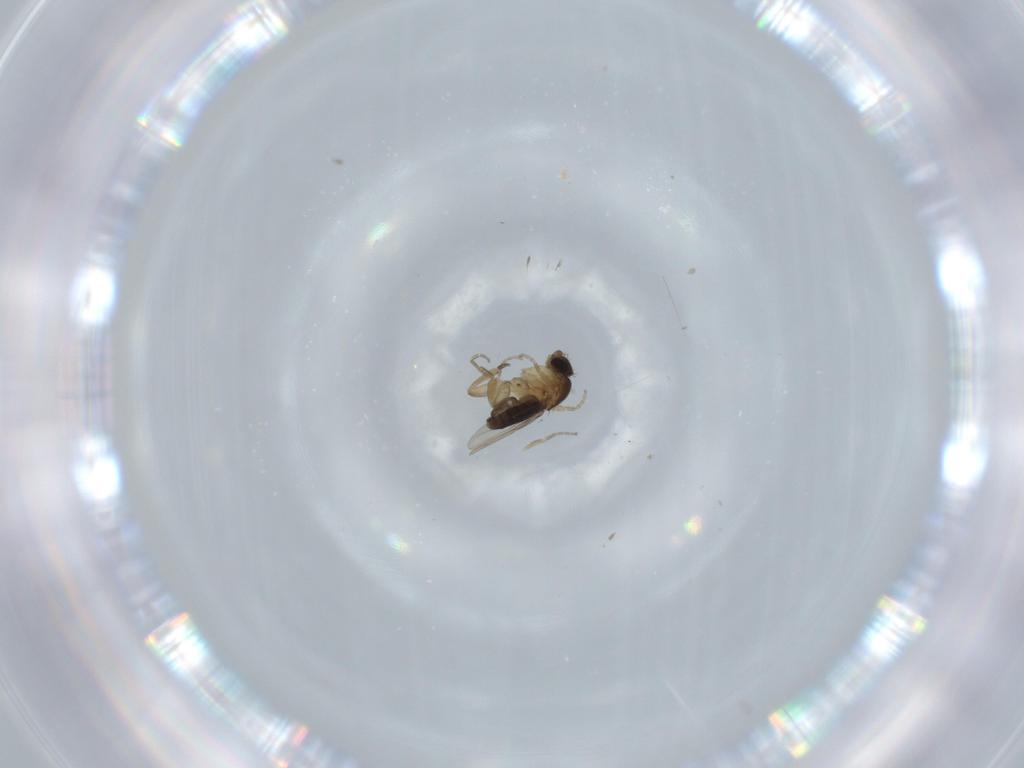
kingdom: Animalia
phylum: Arthropoda
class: Insecta
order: Diptera
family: Phoridae
